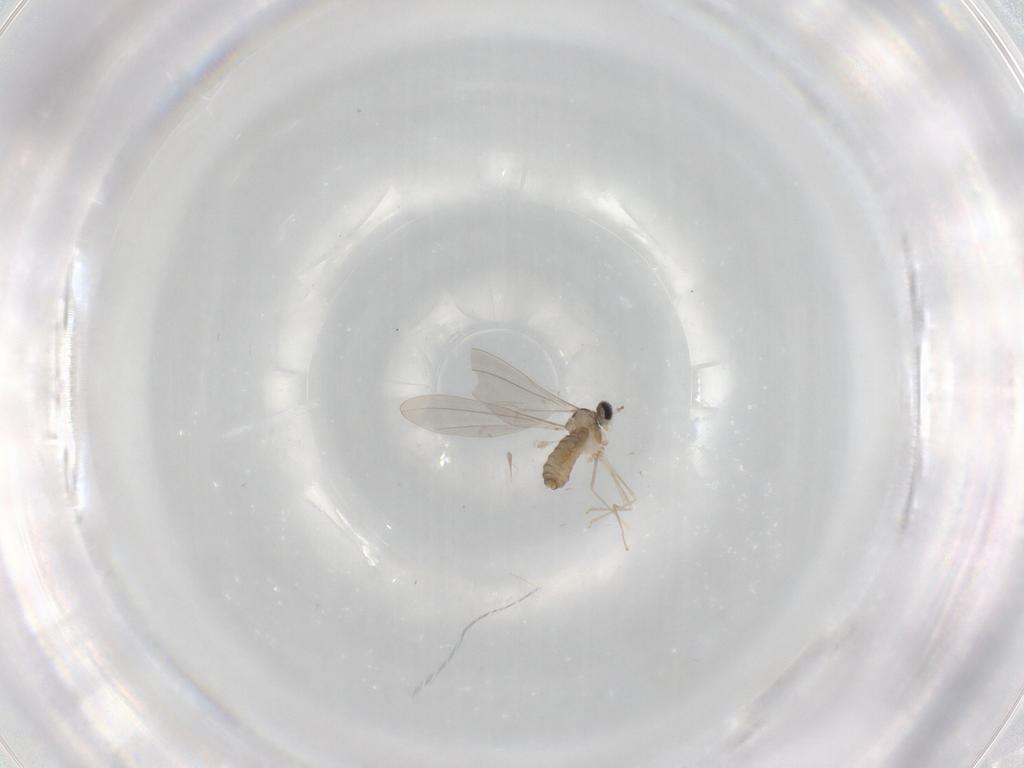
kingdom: Animalia
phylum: Arthropoda
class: Insecta
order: Diptera
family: Cecidomyiidae
